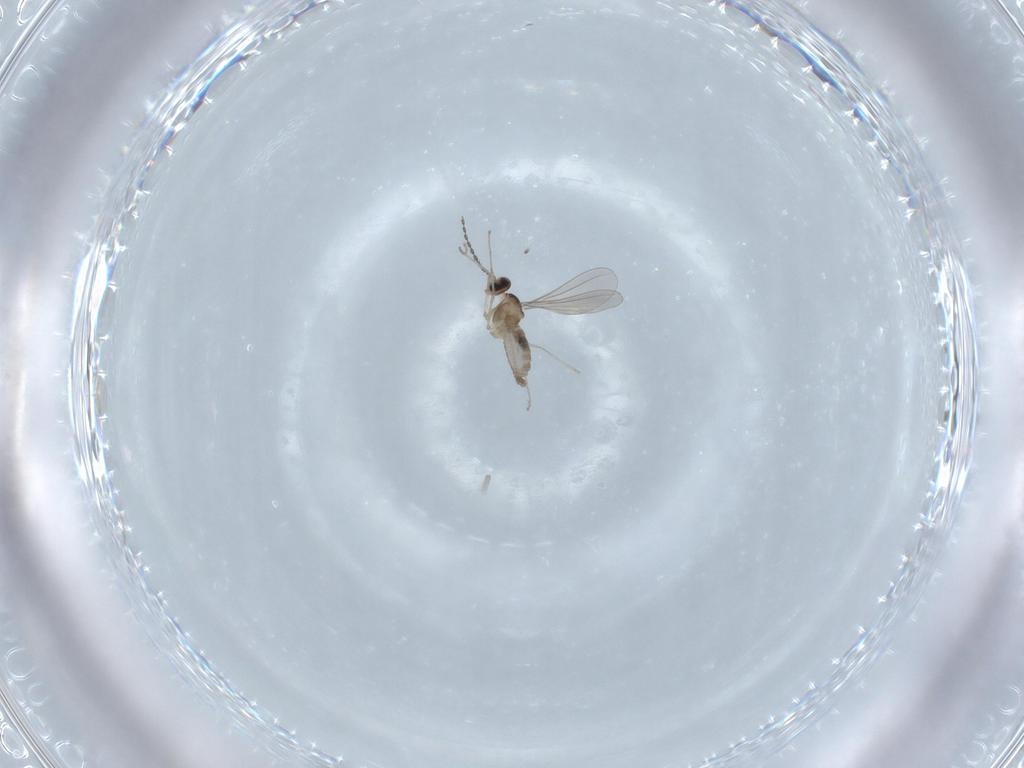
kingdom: Animalia
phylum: Arthropoda
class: Insecta
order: Diptera
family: Ceratopogonidae
